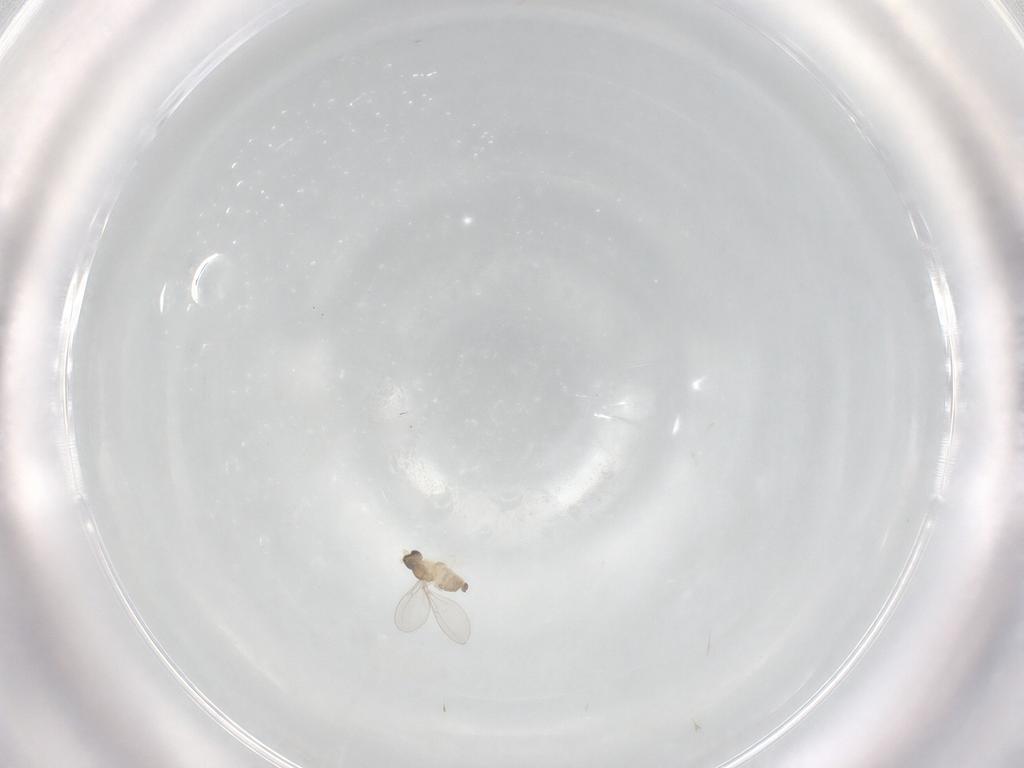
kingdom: Animalia
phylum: Arthropoda
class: Insecta
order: Diptera
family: Cecidomyiidae
